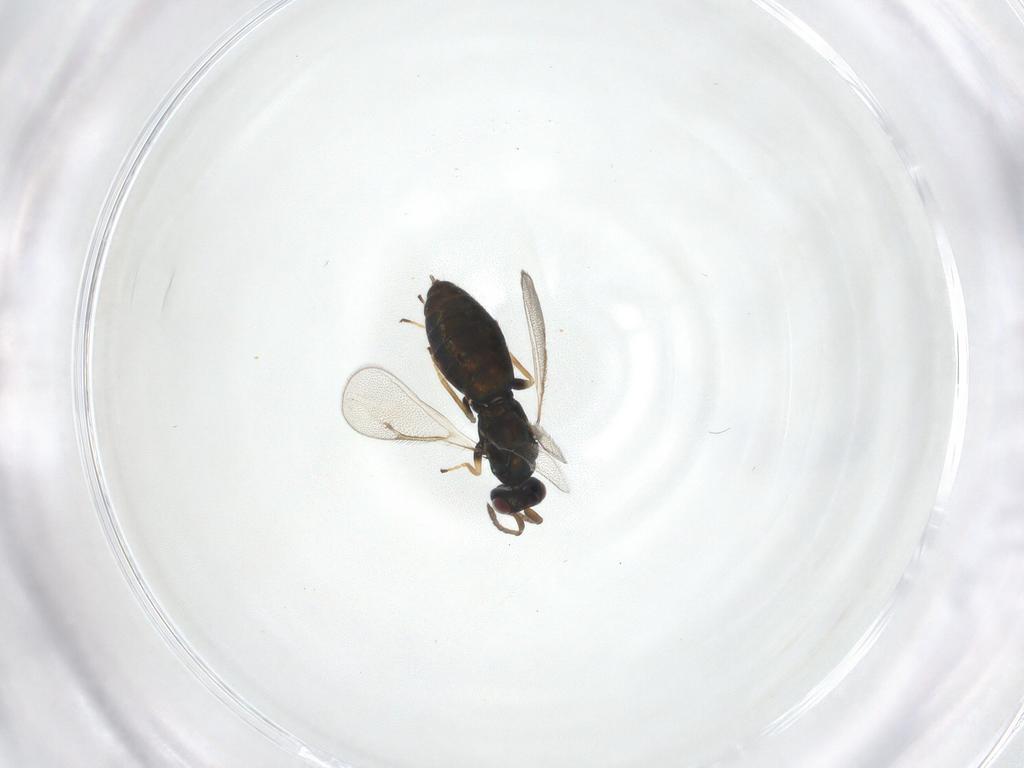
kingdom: Animalia
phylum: Arthropoda
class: Insecta
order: Hymenoptera
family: Eulophidae
